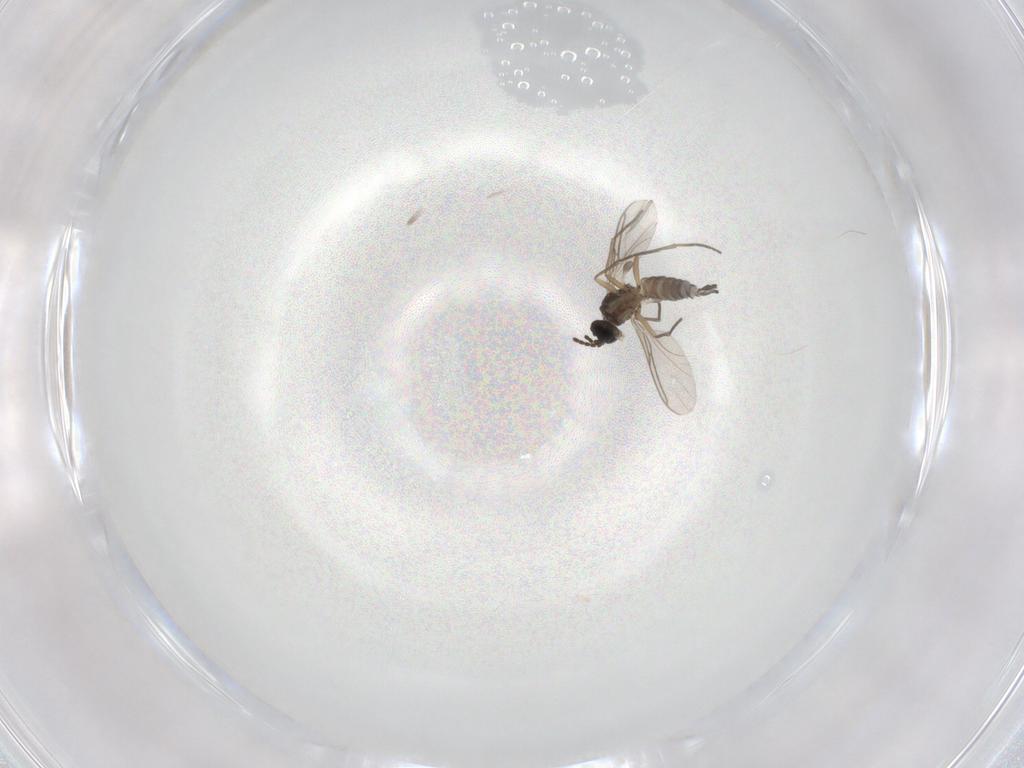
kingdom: Animalia
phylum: Arthropoda
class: Insecta
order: Diptera
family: Sciaridae
